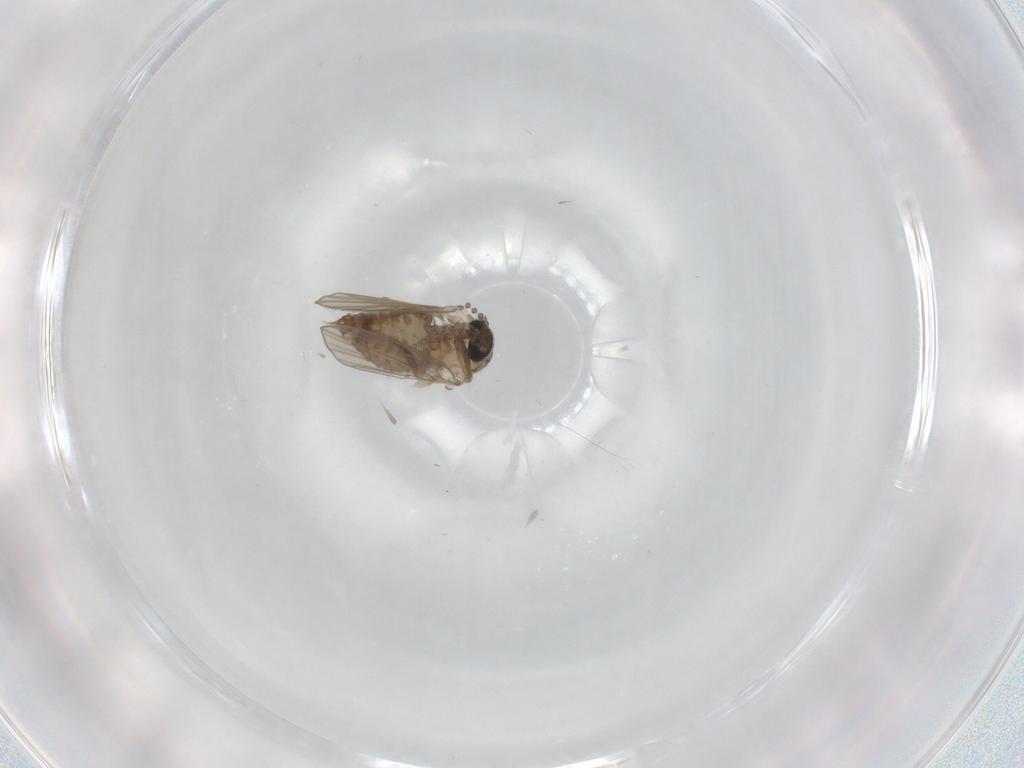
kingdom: Animalia
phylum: Arthropoda
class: Insecta
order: Diptera
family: Psychodidae
